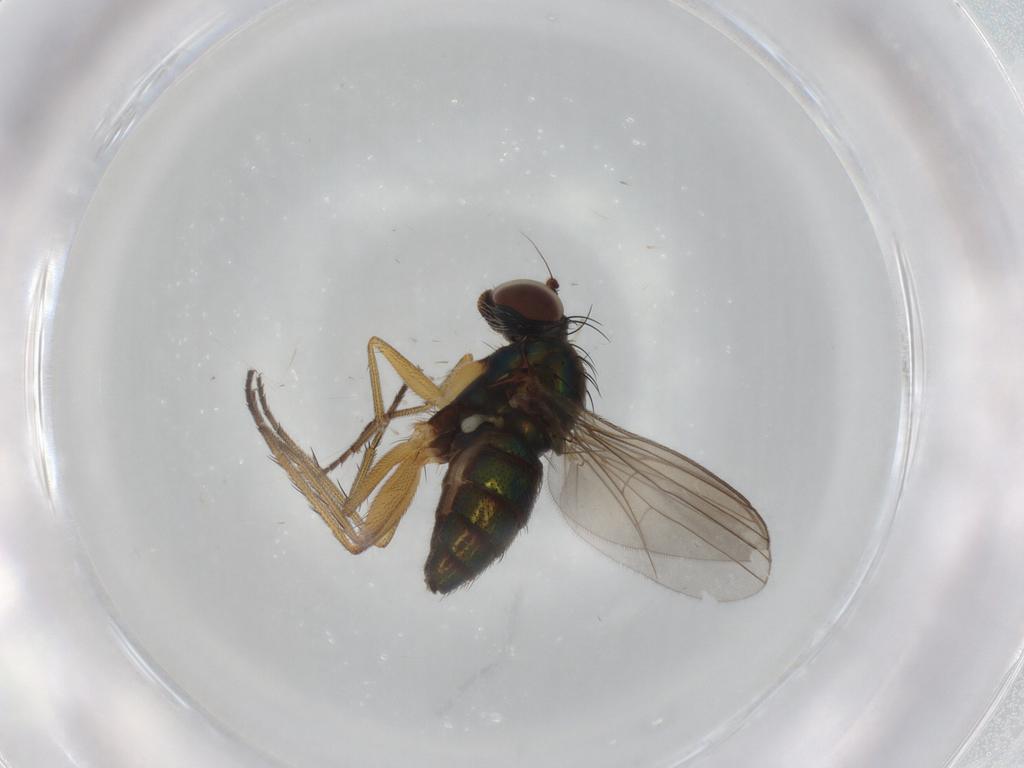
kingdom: Animalia
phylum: Arthropoda
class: Insecta
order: Diptera
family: Dolichopodidae
